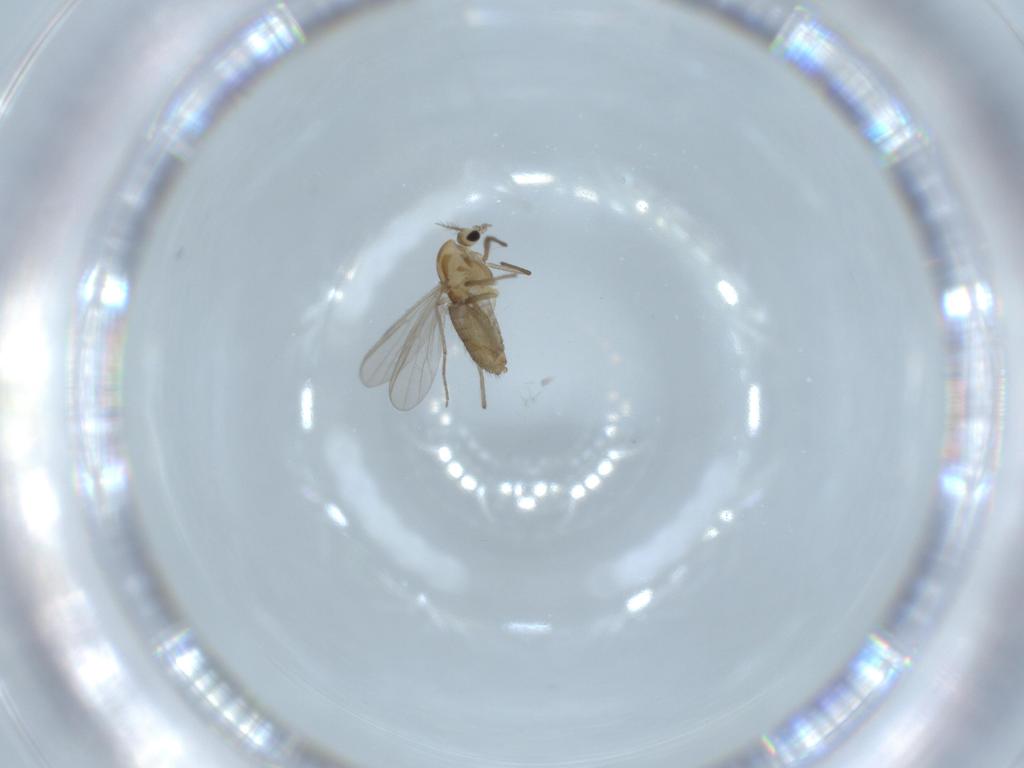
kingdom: Animalia
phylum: Arthropoda
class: Insecta
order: Diptera
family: Chironomidae
